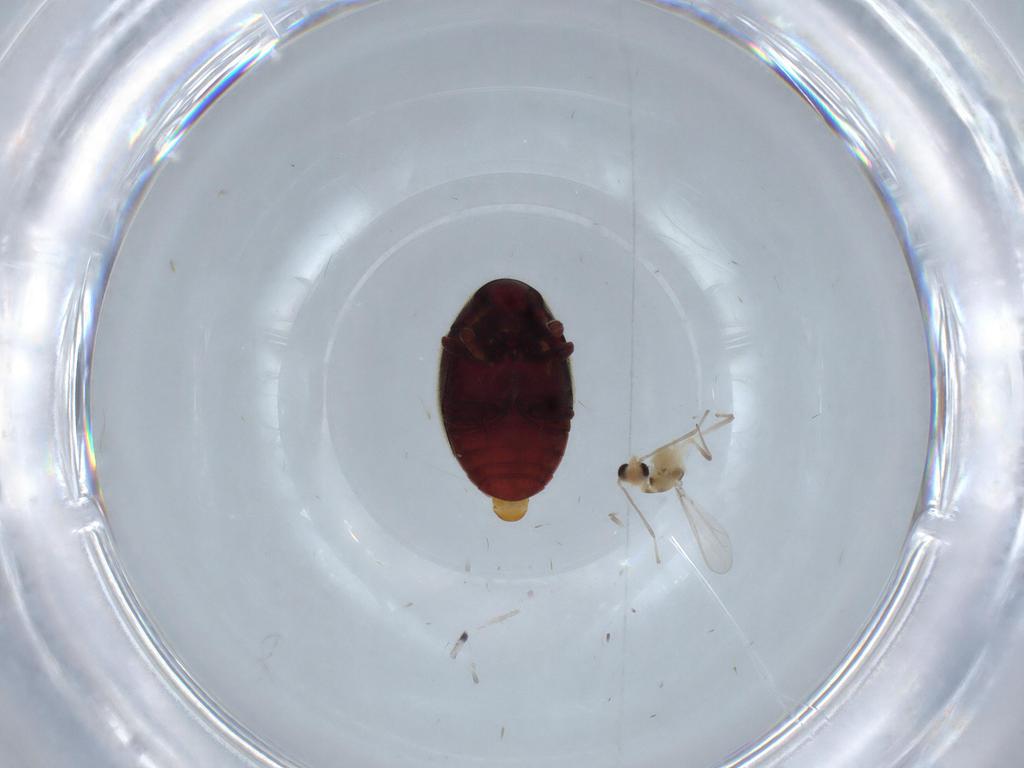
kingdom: Animalia
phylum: Arthropoda
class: Insecta
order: Diptera
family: Chironomidae
